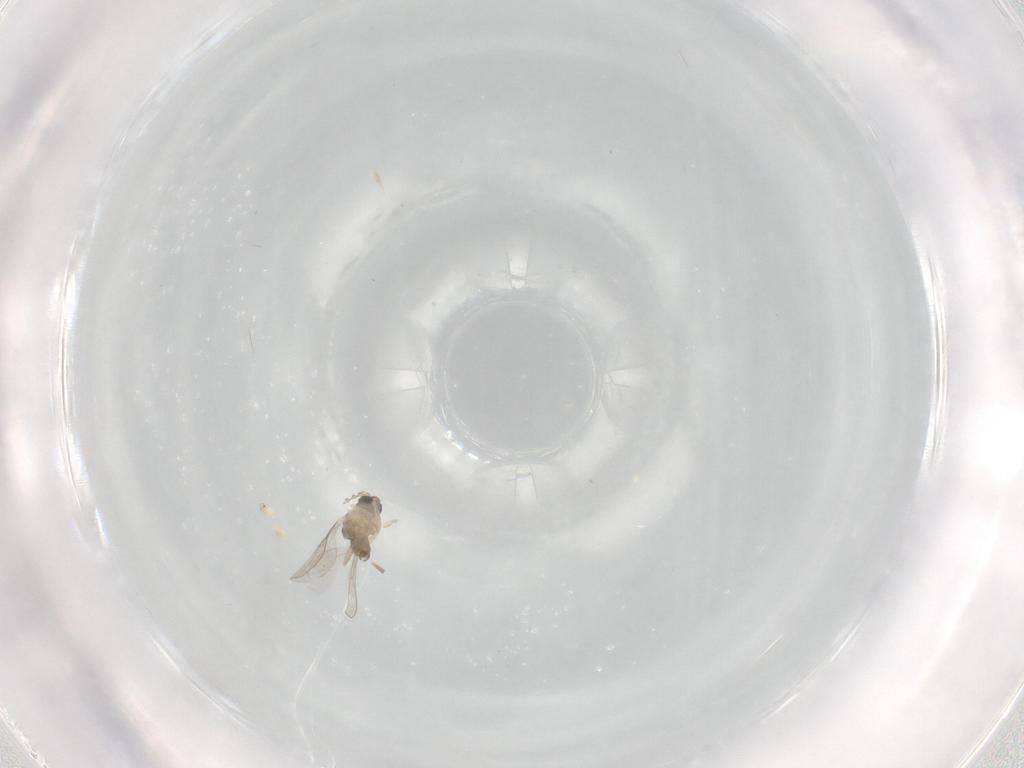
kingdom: Animalia
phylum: Arthropoda
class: Insecta
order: Diptera
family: Cecidomyiidae
